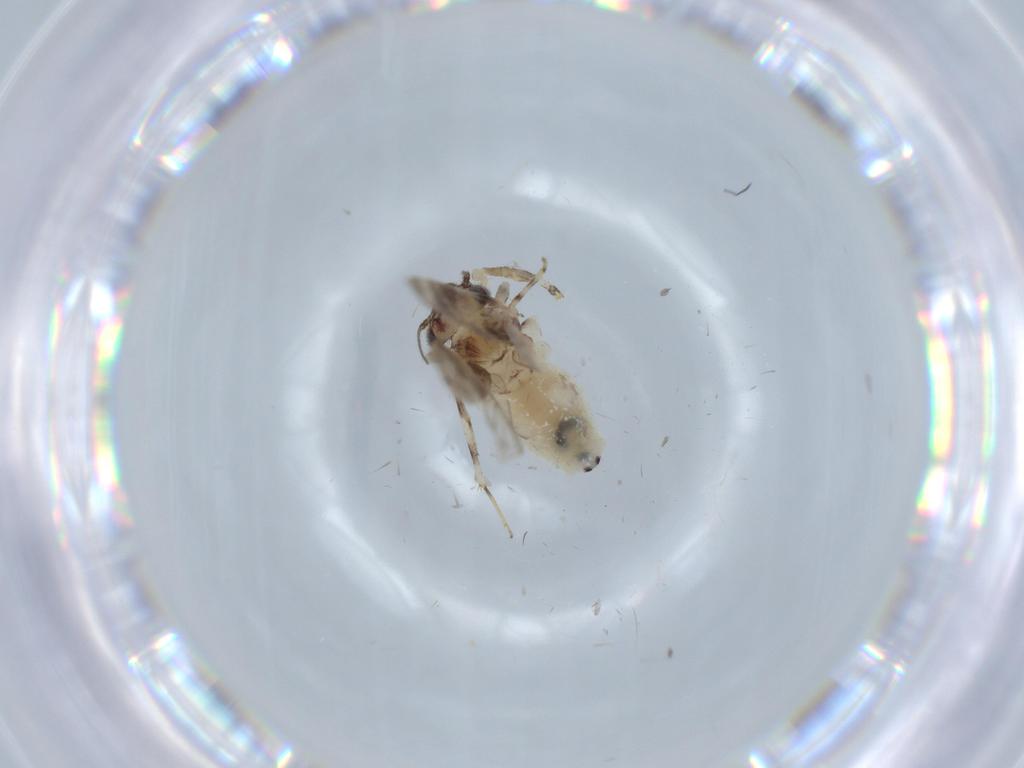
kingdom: Animalia
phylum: Arthropoda
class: Insecta
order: Psocodea
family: Lepidopsocidae
